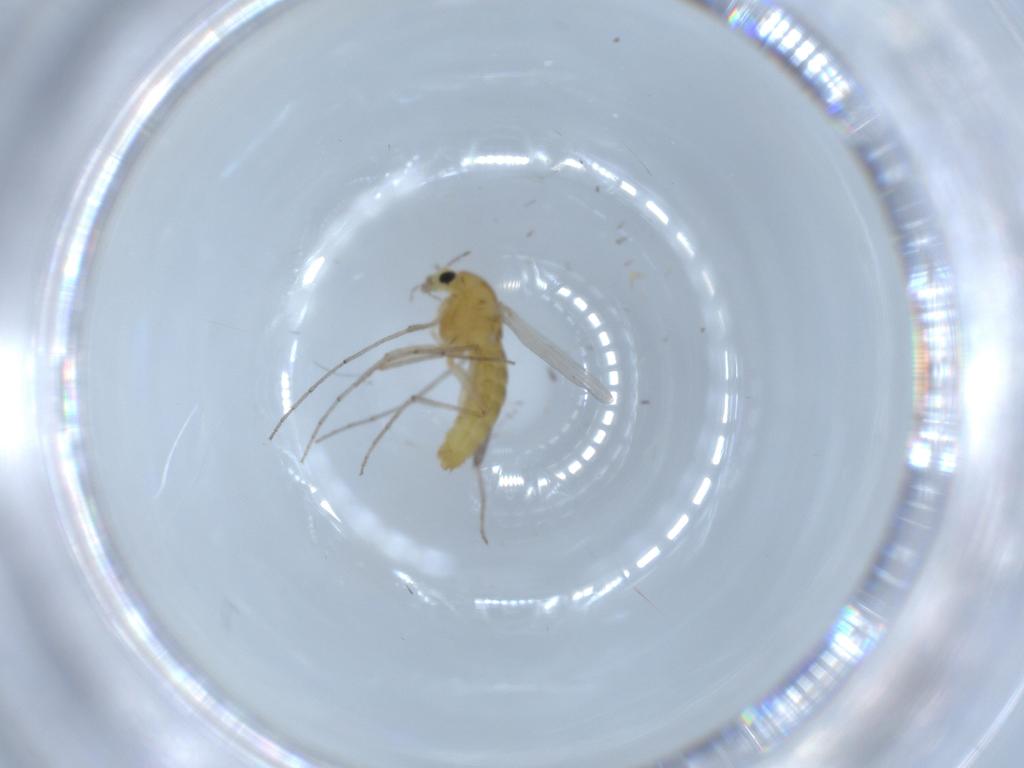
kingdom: Animalia
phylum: Arthropoda
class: Insecta
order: Diptera
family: Chironomidae
